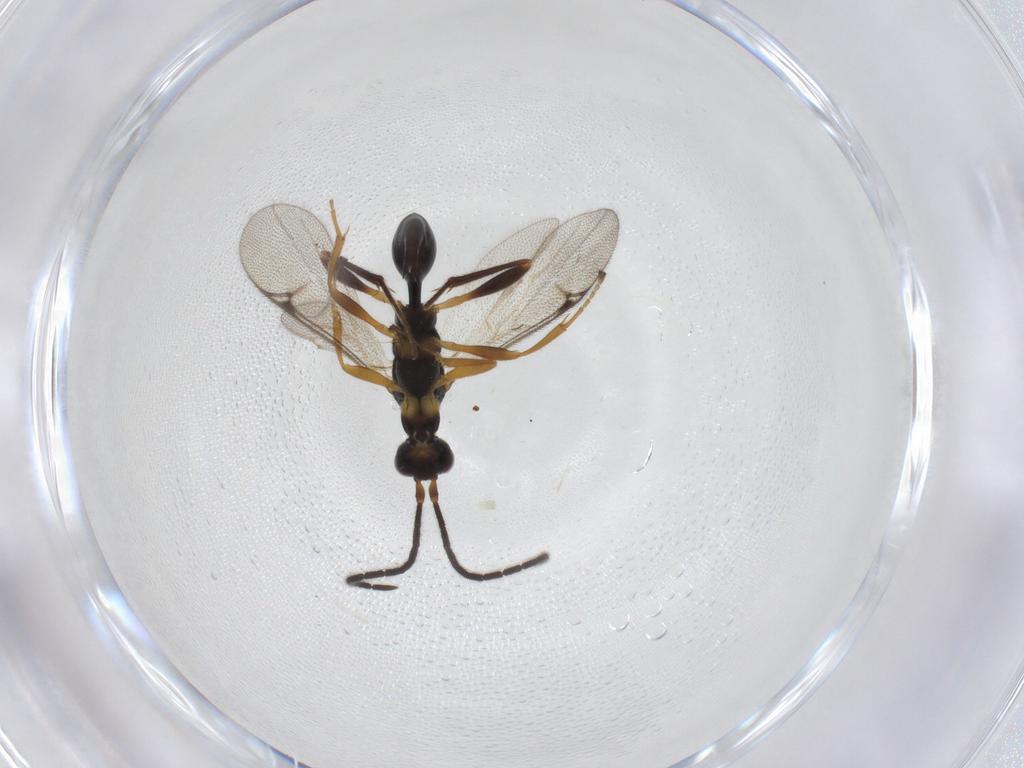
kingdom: Animalia
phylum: Arthropoda
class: Insecta
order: Hymenoptera
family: Proctotrupidae
